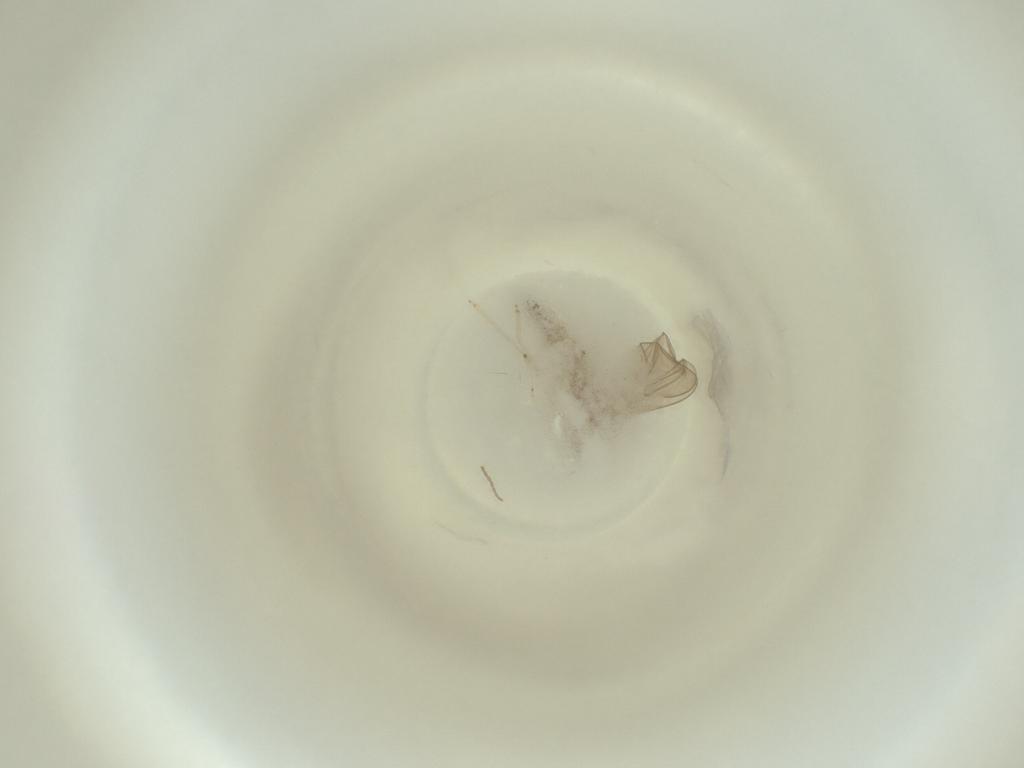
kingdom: Animalia
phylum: Arthropoda
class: Insecta
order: Diptera
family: Cecidomyiidae
